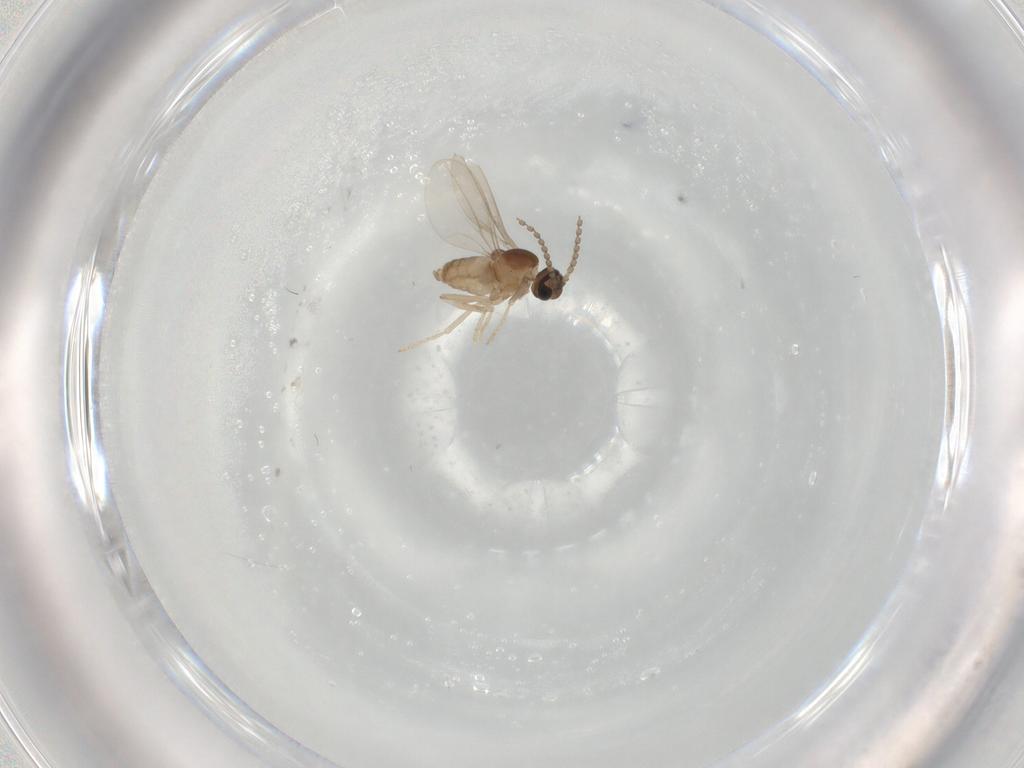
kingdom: Animalia
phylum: Arthropoda
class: Insecta
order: Diptera
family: Cecidomyiidae
